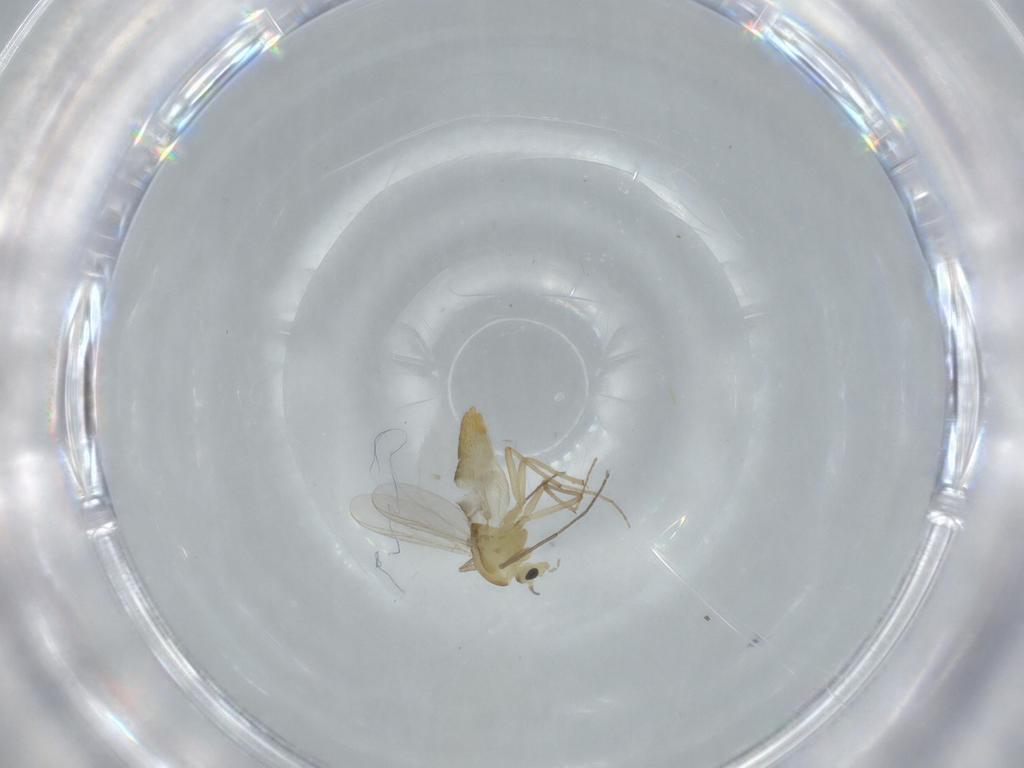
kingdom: Animalia
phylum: Arthropoda
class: Insecta
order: Diptera
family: Chironomidae
